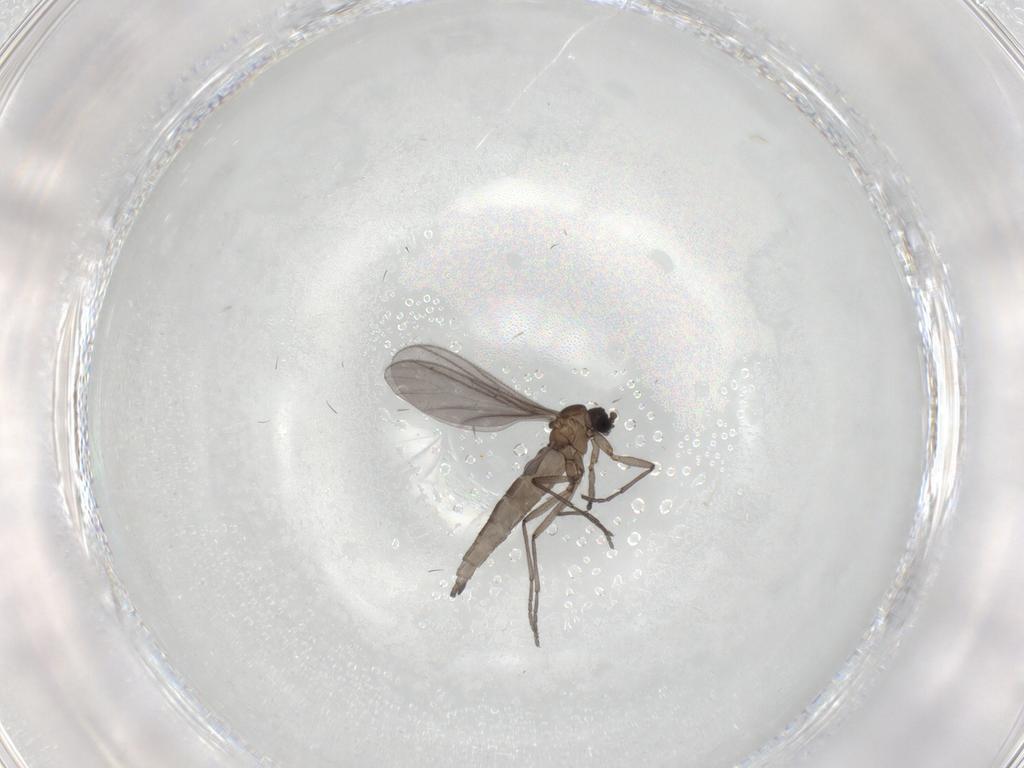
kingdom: Animalia
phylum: Arthropoda
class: Insecta
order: Diptera
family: Sciaridae
